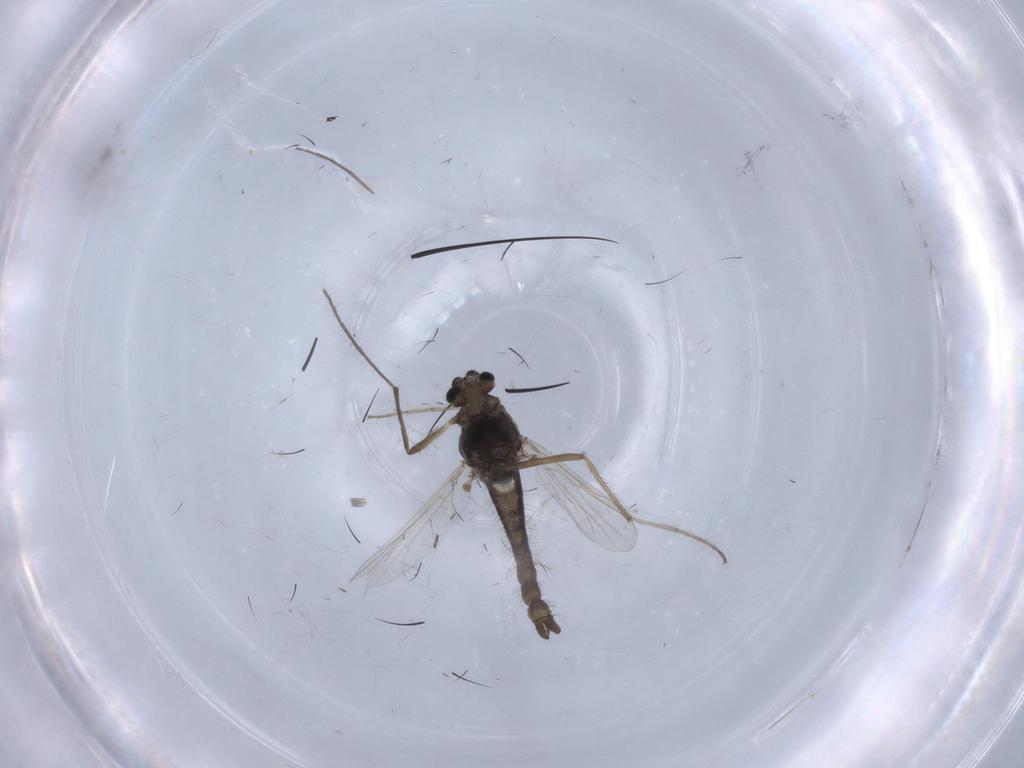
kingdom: Animalia
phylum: Arthropoda
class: Insecta
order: Diptera
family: Chironomidae
